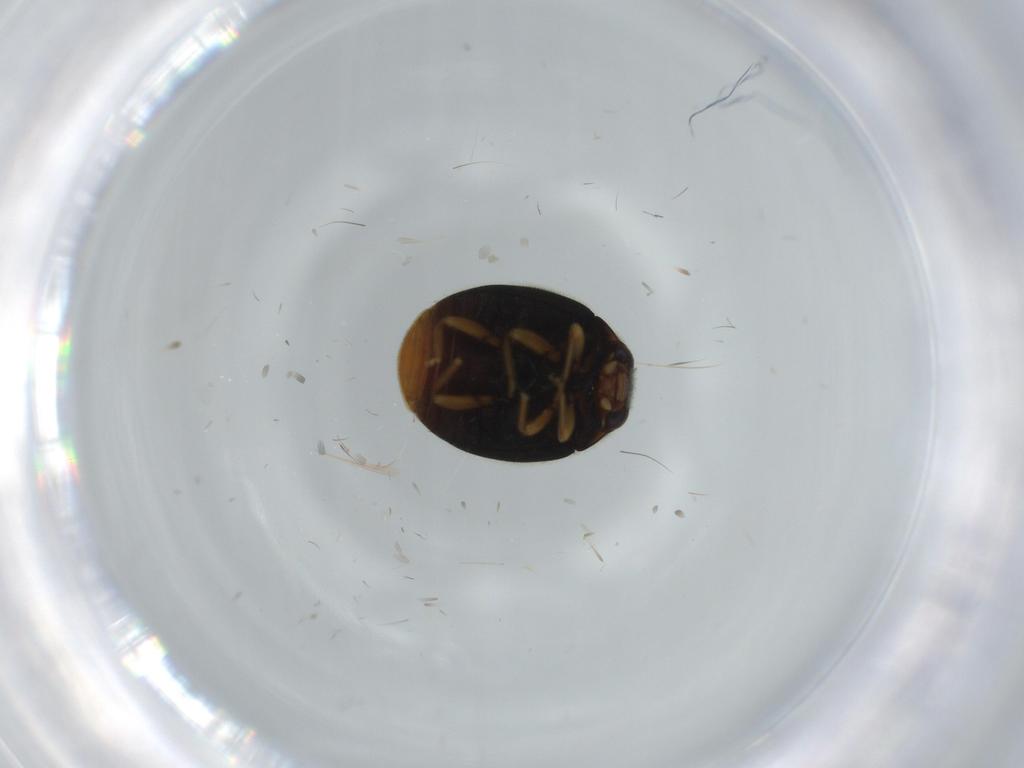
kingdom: Animalia
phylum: Arthropoda
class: Insecta
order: Coleoptera
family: Coccinellidae
